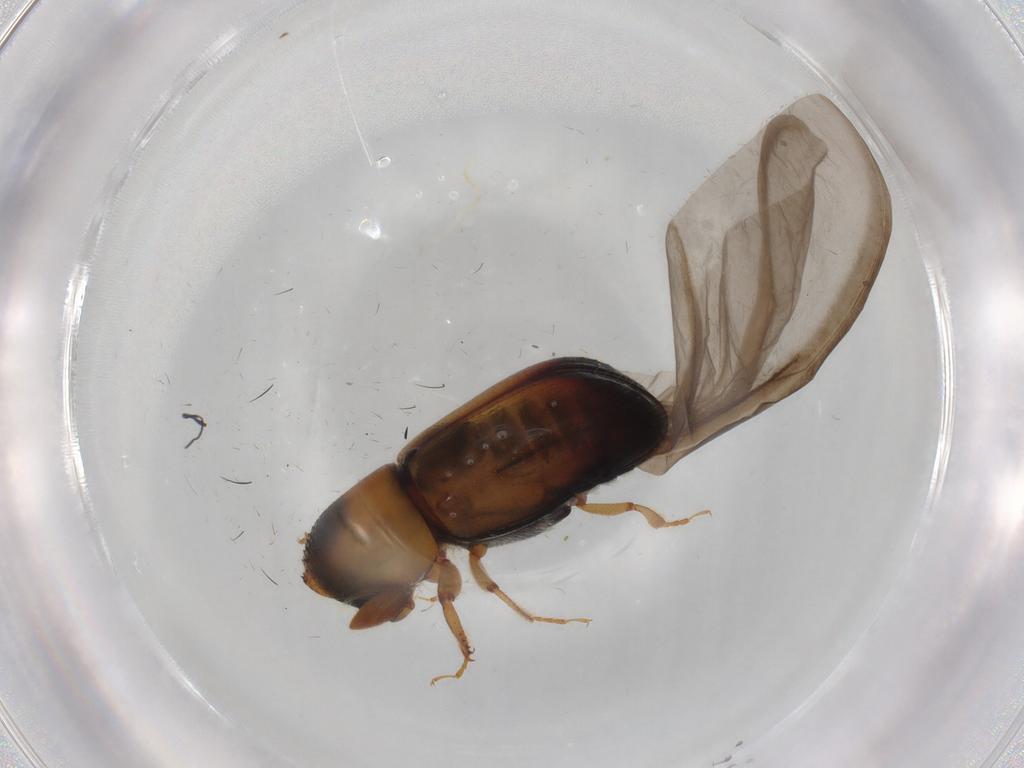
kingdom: Animalia
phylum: Arthropoda
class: Insecta
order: Coleoptera
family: Curculionidae
